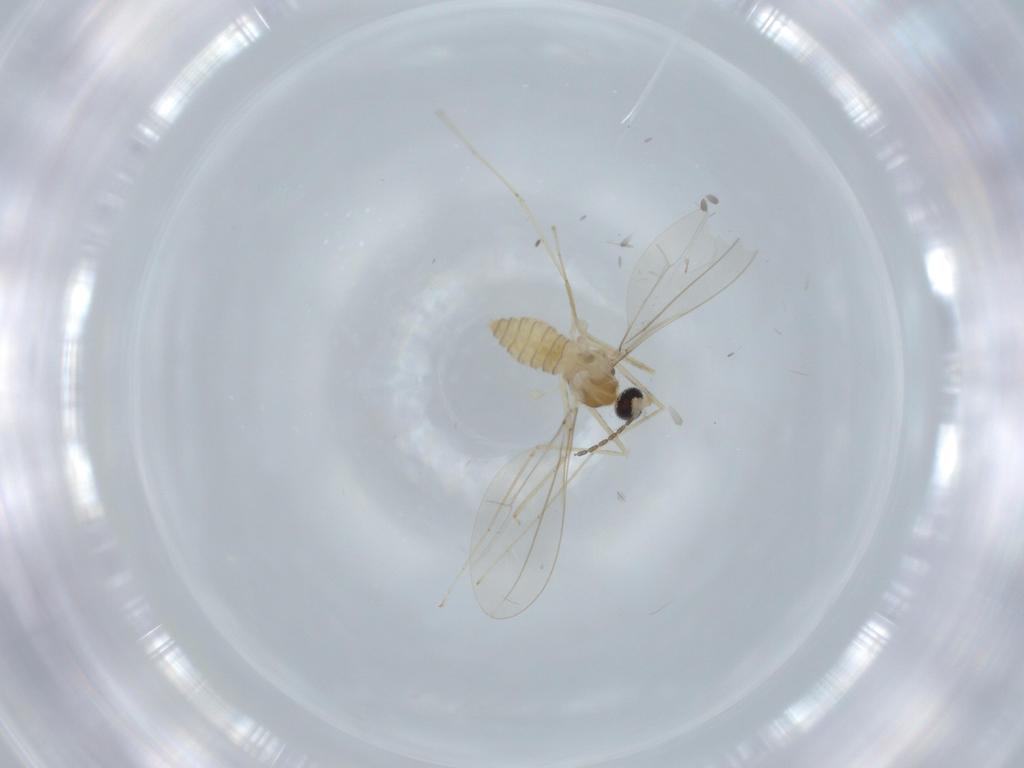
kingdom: Animalia
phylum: Arthropoda
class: Insecta
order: Diptera
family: Cecidomyiidae
